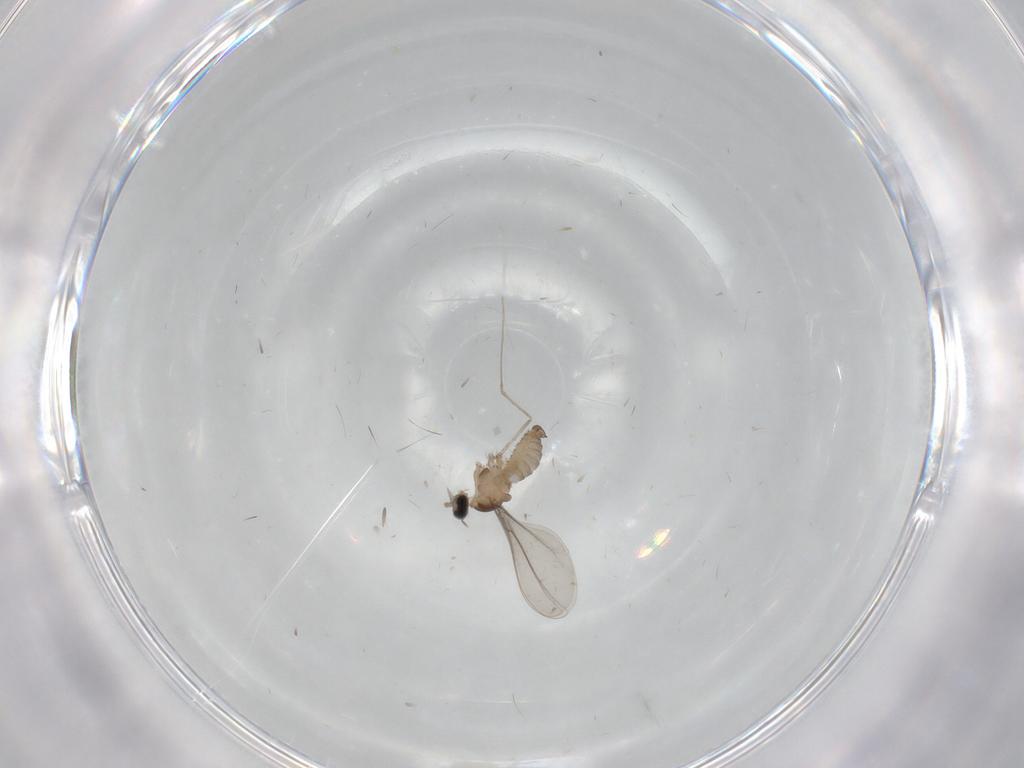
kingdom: Animalia
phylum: Arthropoda
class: Insecta
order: Diptera
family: Cecidomyiidae
